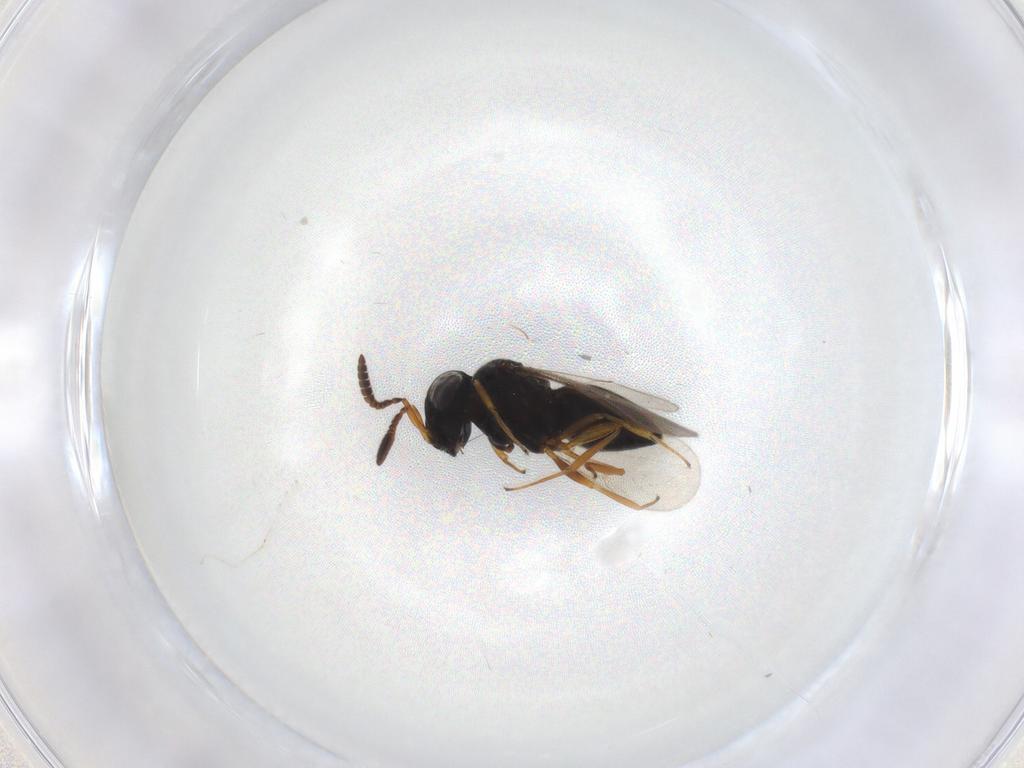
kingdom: Animalia
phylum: Arthropoda
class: Insecta
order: Hymenoptera
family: Scelionidae
